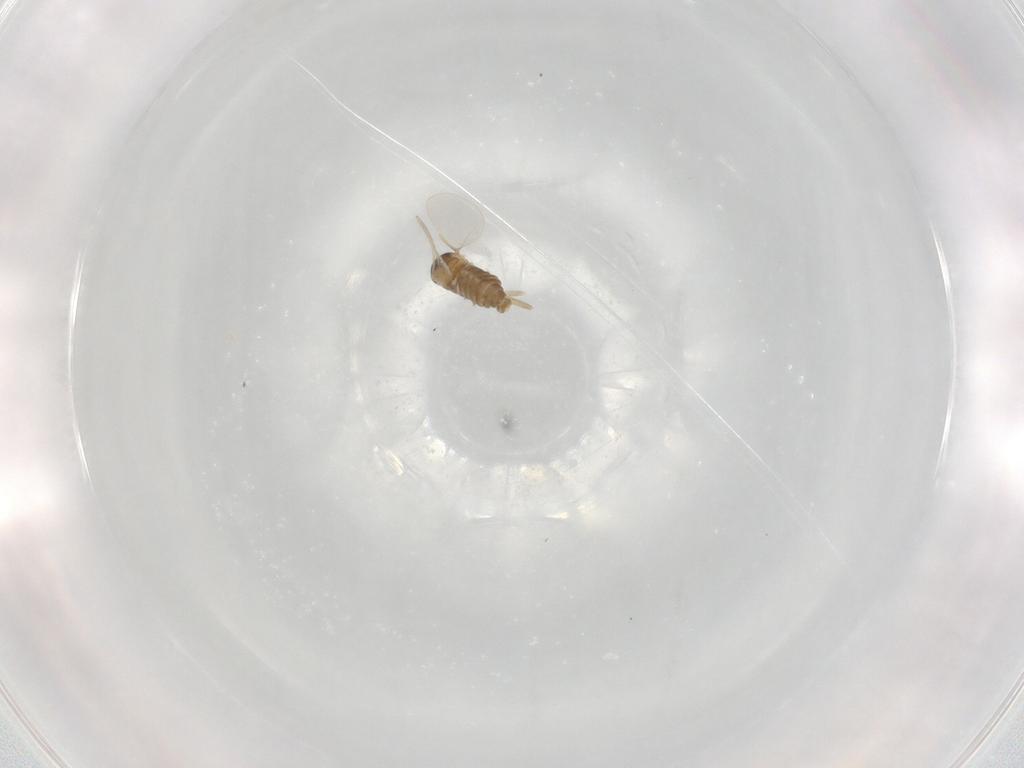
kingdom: Animalia
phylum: Arthropoda
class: Insecta
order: Diptera
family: Cecidomyiidae
